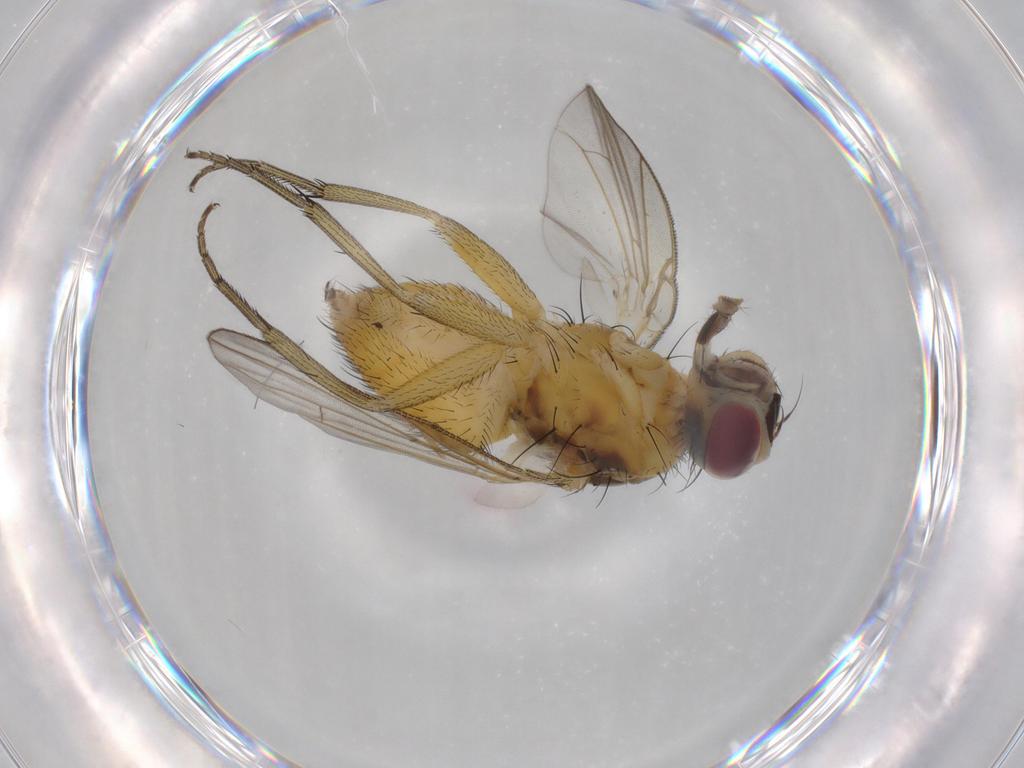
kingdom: Animalia
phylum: Arthropoda
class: Insecta
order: Diptera
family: Muscidae
